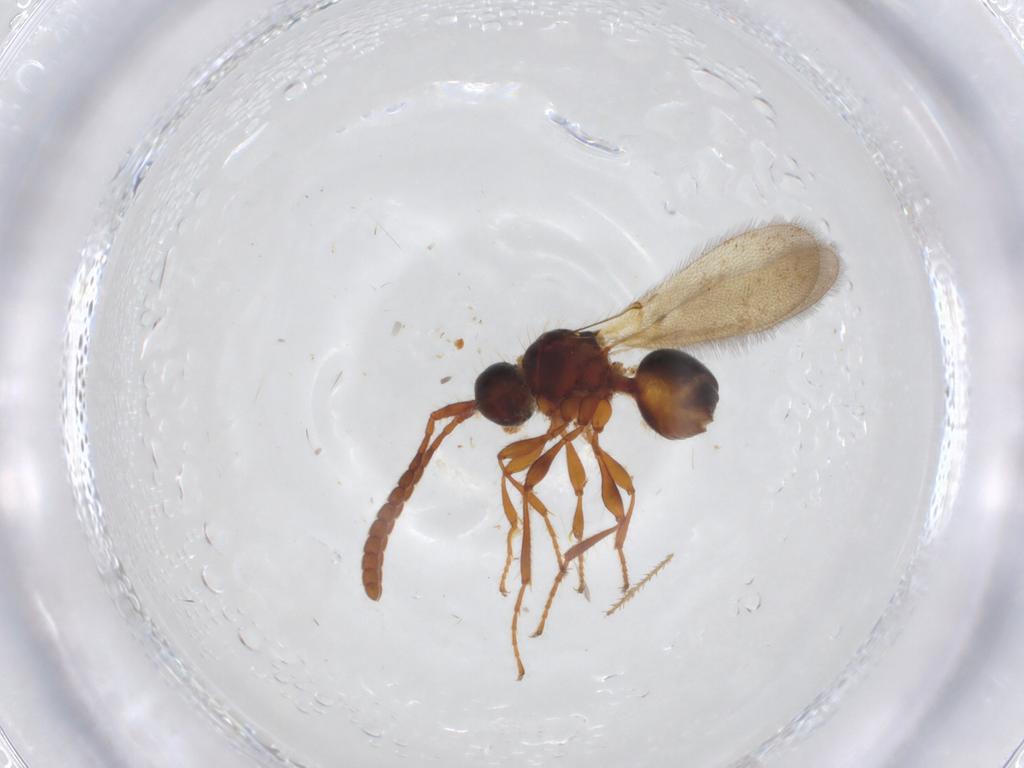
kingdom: Animalia
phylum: Arthropoda
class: Insecta
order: Hymenoptera
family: Diapriidae
